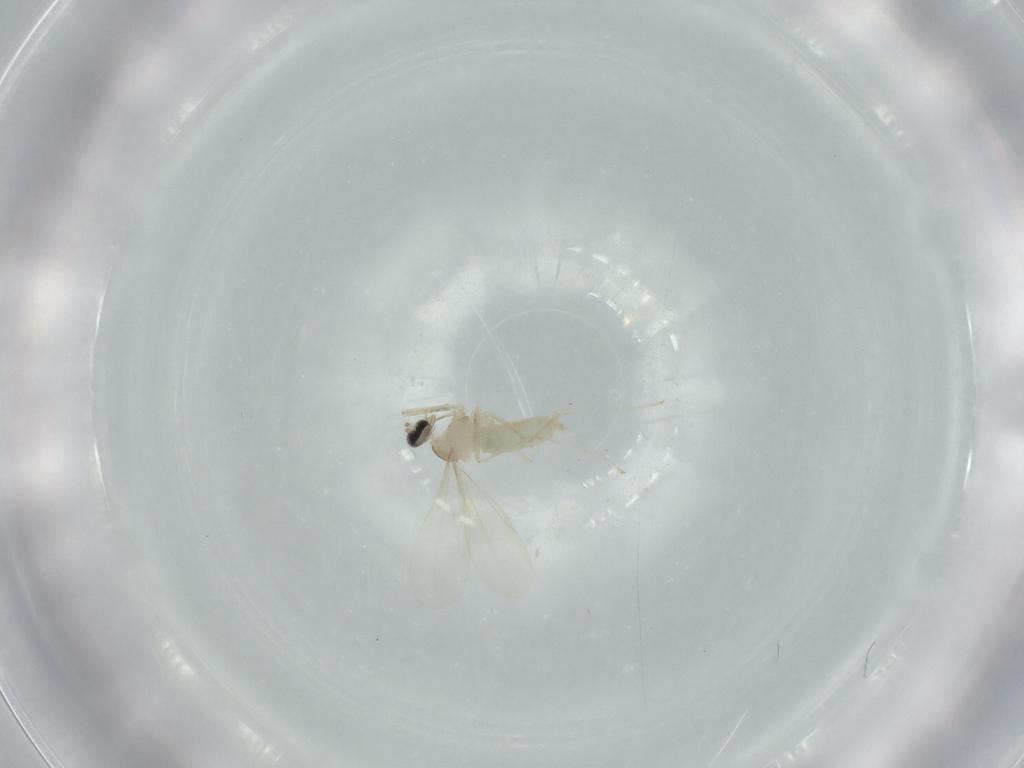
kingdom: Animalia
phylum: Arthropoda
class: Insecta
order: Diptera
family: Cecidomyiidae
